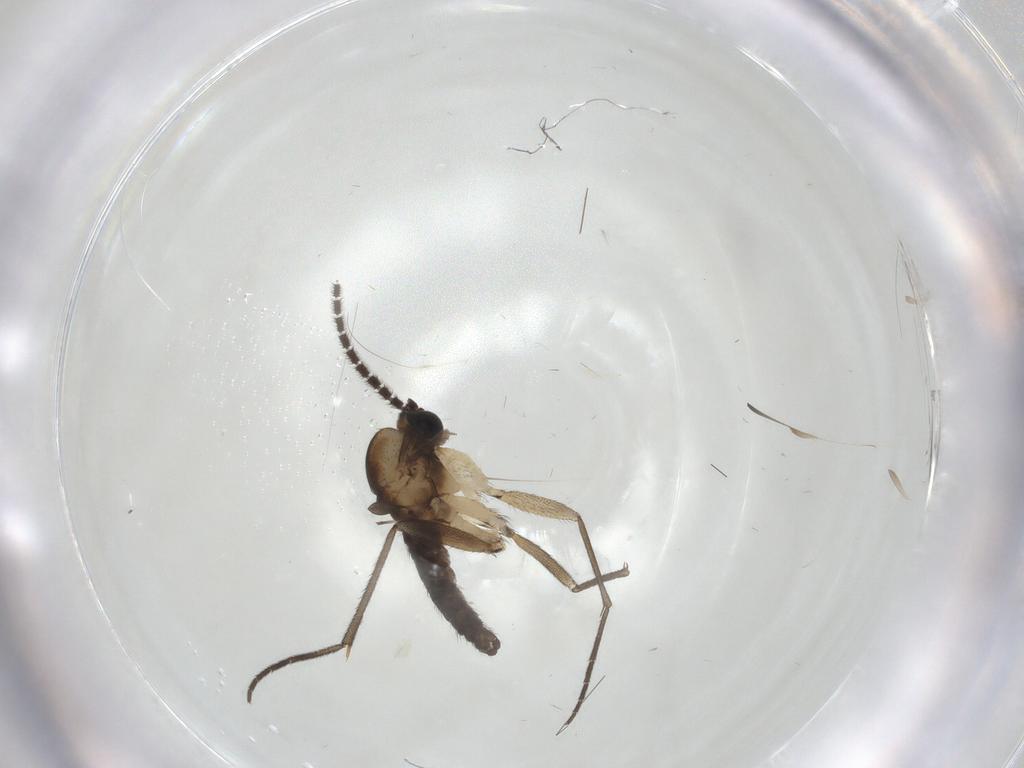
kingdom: Animalia
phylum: Arthropoda
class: Insecta
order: Diptera
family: Sciaridae
